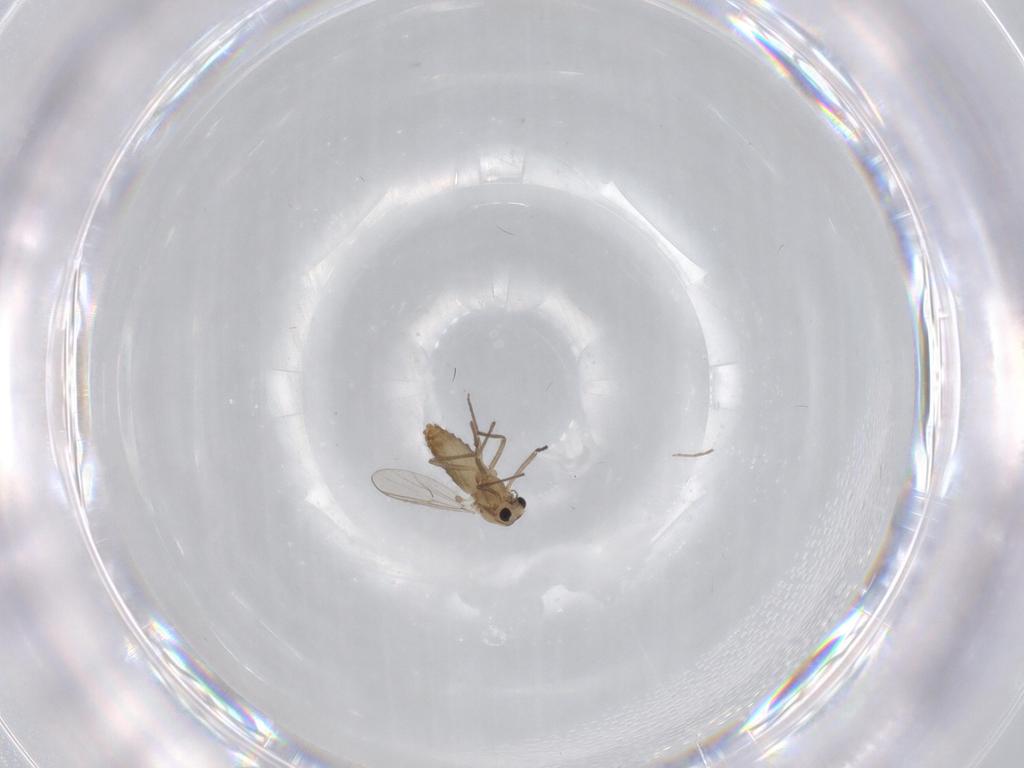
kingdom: Animalia
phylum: Arthropoda
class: Insecta
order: Diptera
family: Chironomidae
